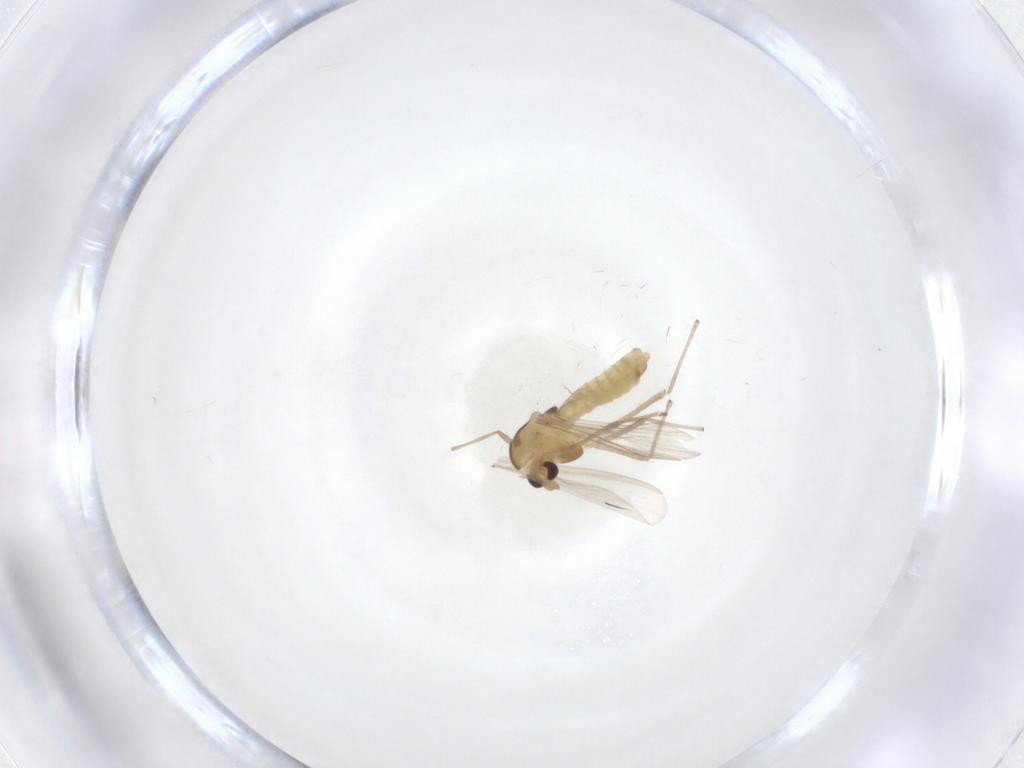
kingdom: Animalia
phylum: Arthropoda
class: Insecta
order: Diptera
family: Chironomidae
